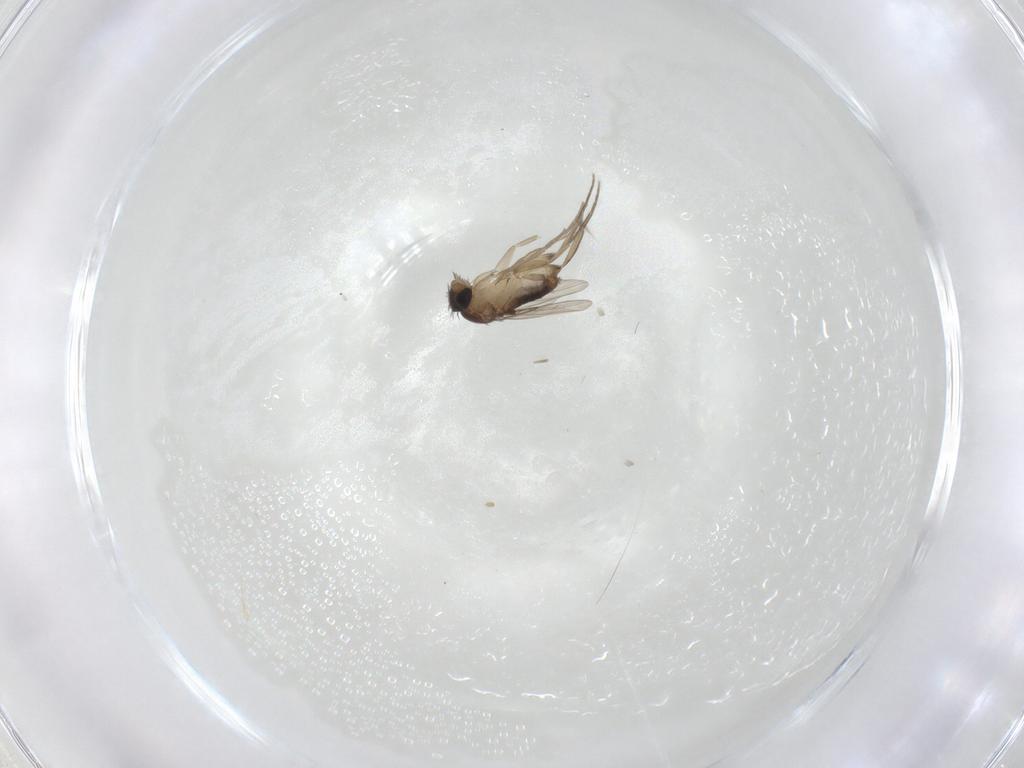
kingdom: Animalia
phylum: Arthropoda
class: Insecta
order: Diptera
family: Phoridae
